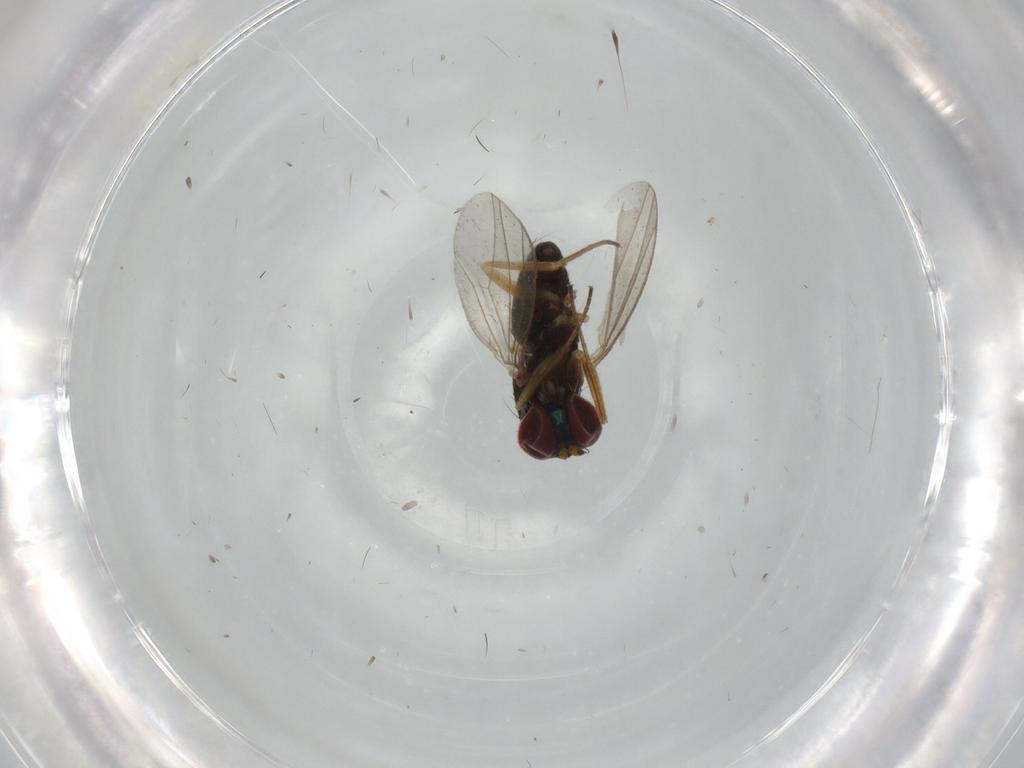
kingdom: Animalia
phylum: Arthropoda
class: Insecta
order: Diptera
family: Dolichopodidae
